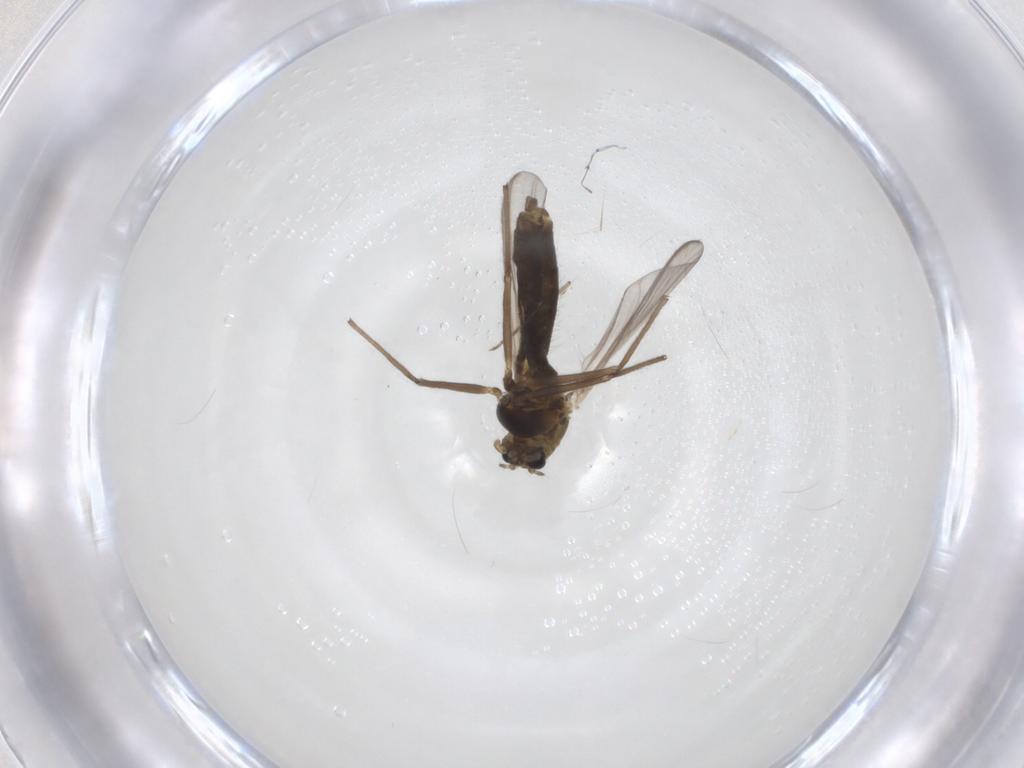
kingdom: Animalia
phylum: Arthropoda
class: Insecta
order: Diptera
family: Chironomidae
